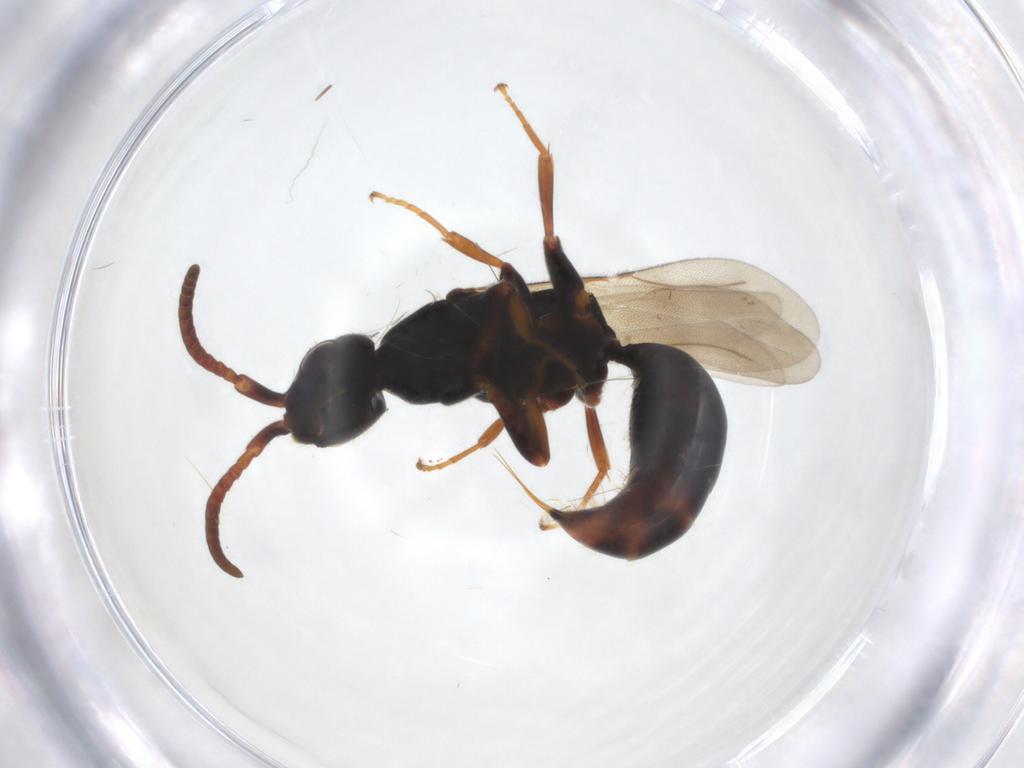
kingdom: Animalia
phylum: Arthropoda
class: Insecta
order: Hymenoptera
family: Bethylidae
